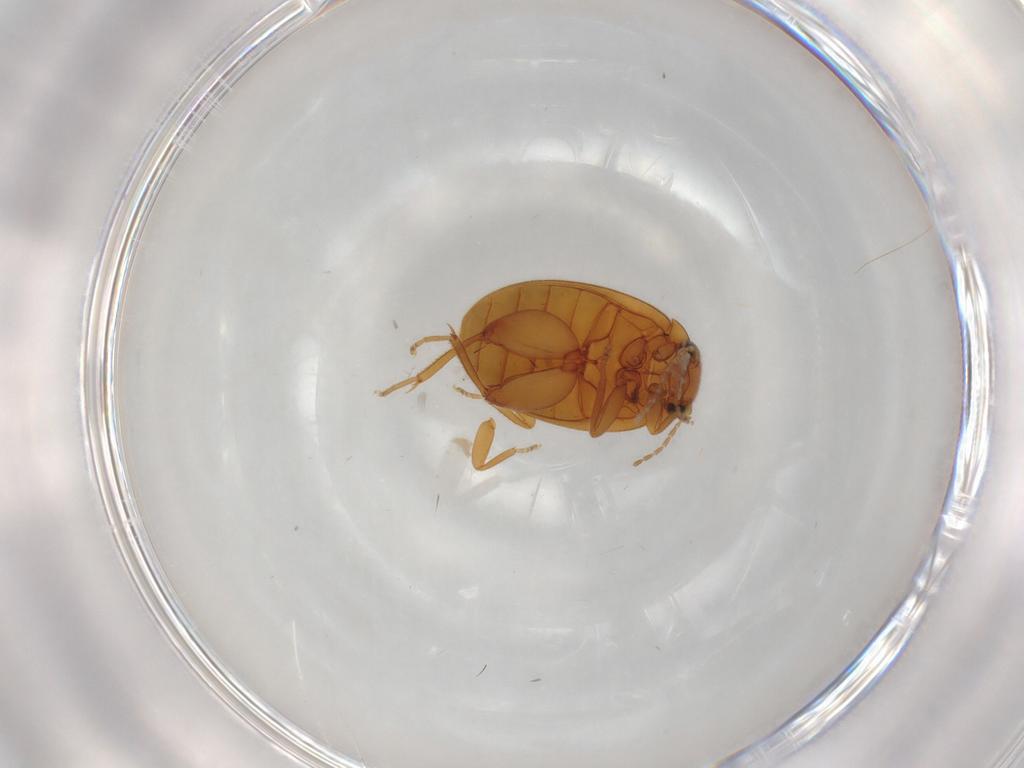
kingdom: Animalia
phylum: Arthropoda
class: Insecta
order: Coleoptera
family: Scirtidae
